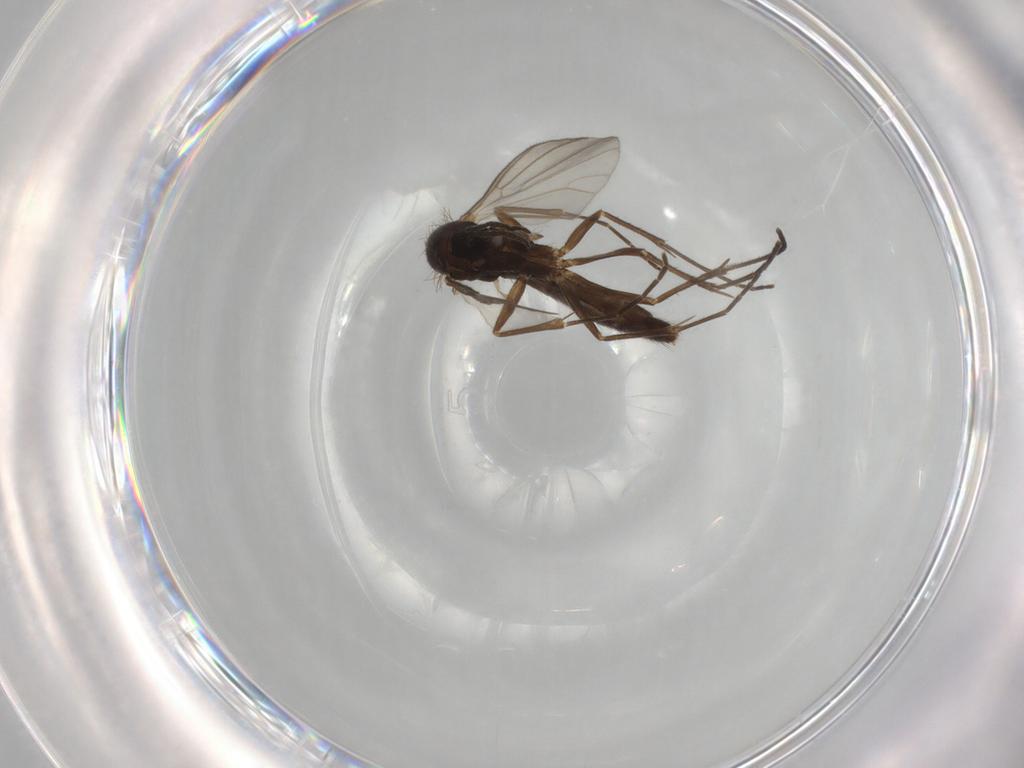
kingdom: Animalia
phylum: Arthropoda
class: Insecta
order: Diptera
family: Mycetophilidae
